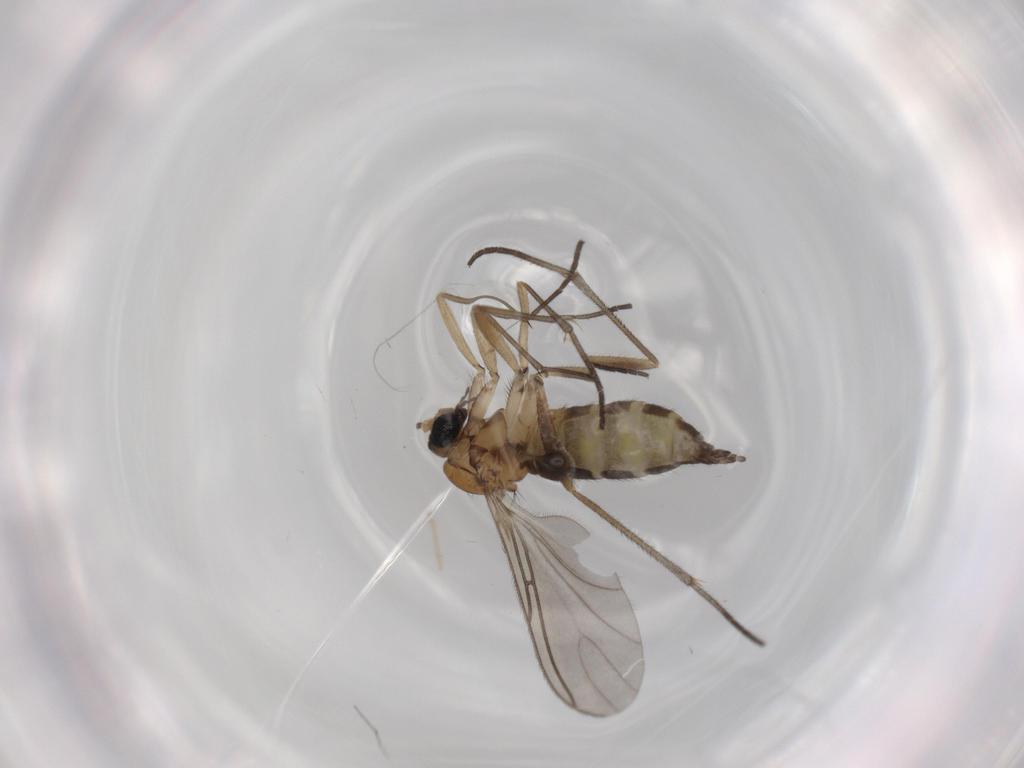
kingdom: Animalia
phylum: Arthropoda
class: Insecta
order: Diptera
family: Sciaridae
